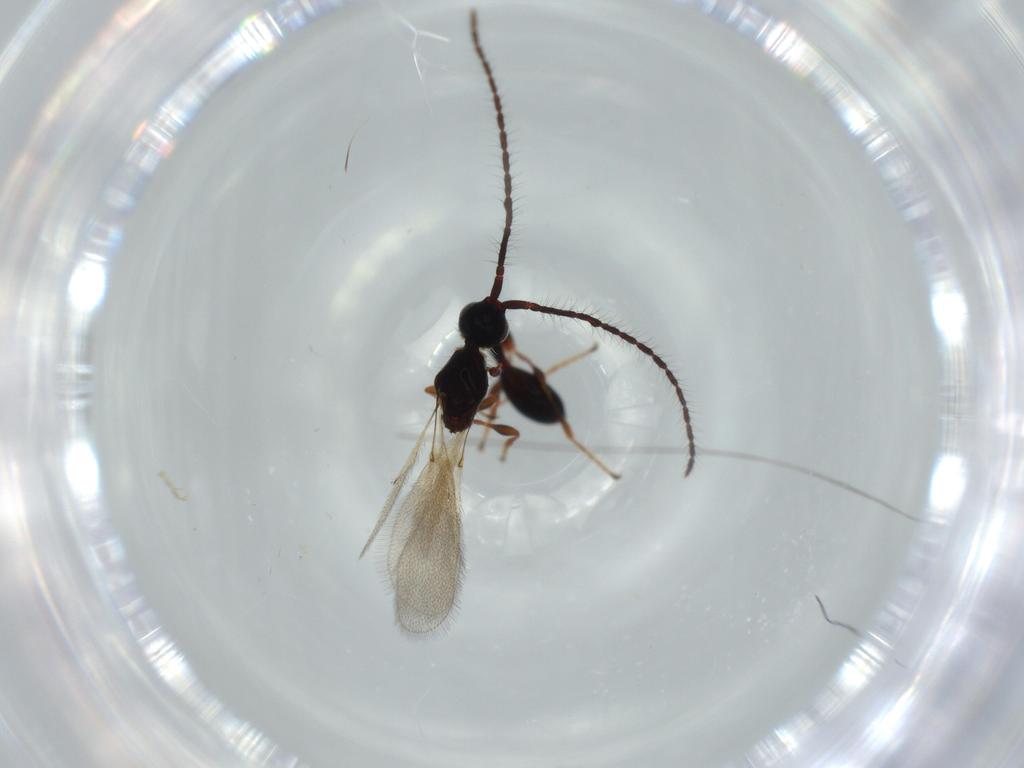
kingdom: Animalia
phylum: Arthropoda
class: Insecta
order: Hymenoptera
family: Diapriidae
